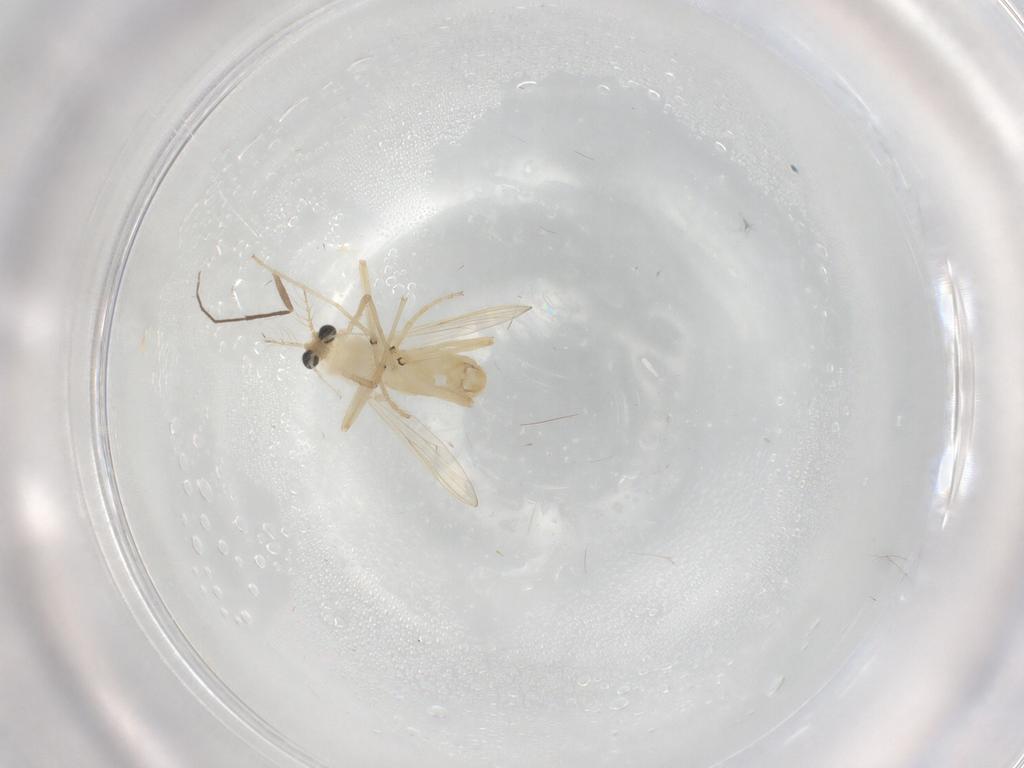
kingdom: Animalia
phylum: Arthropoda
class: Insecta
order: Diptera
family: Chironomidae
